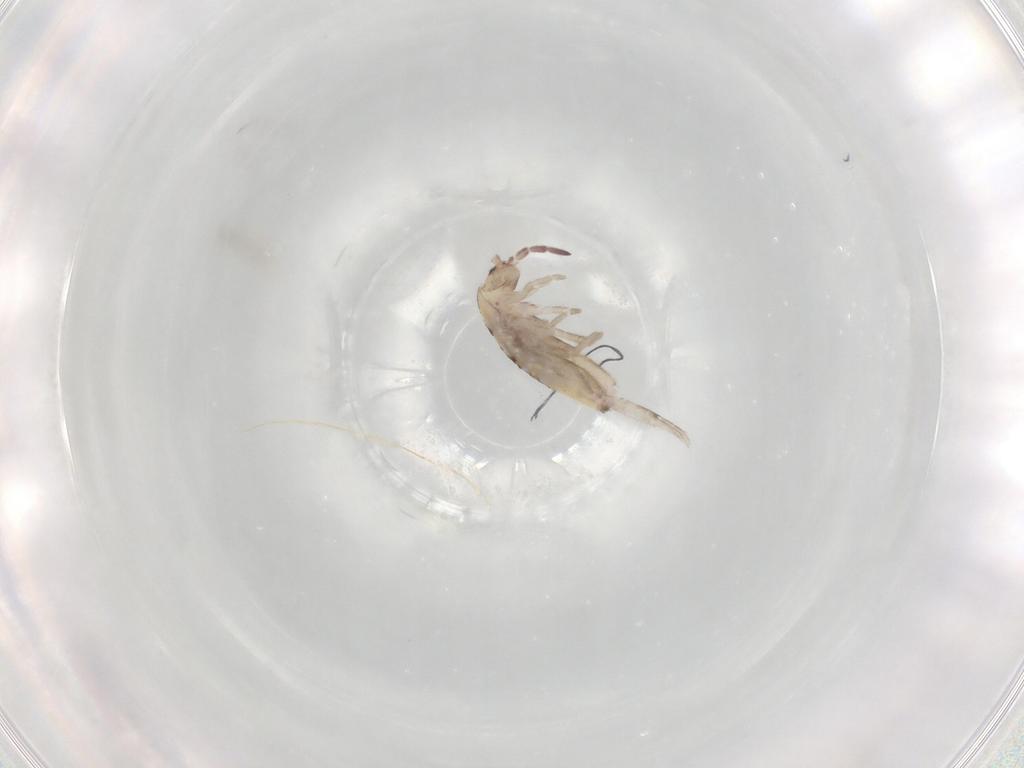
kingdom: Animalia
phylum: Arthropoda
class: Collembola
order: Entomobryomorpha
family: Entomobryidae
